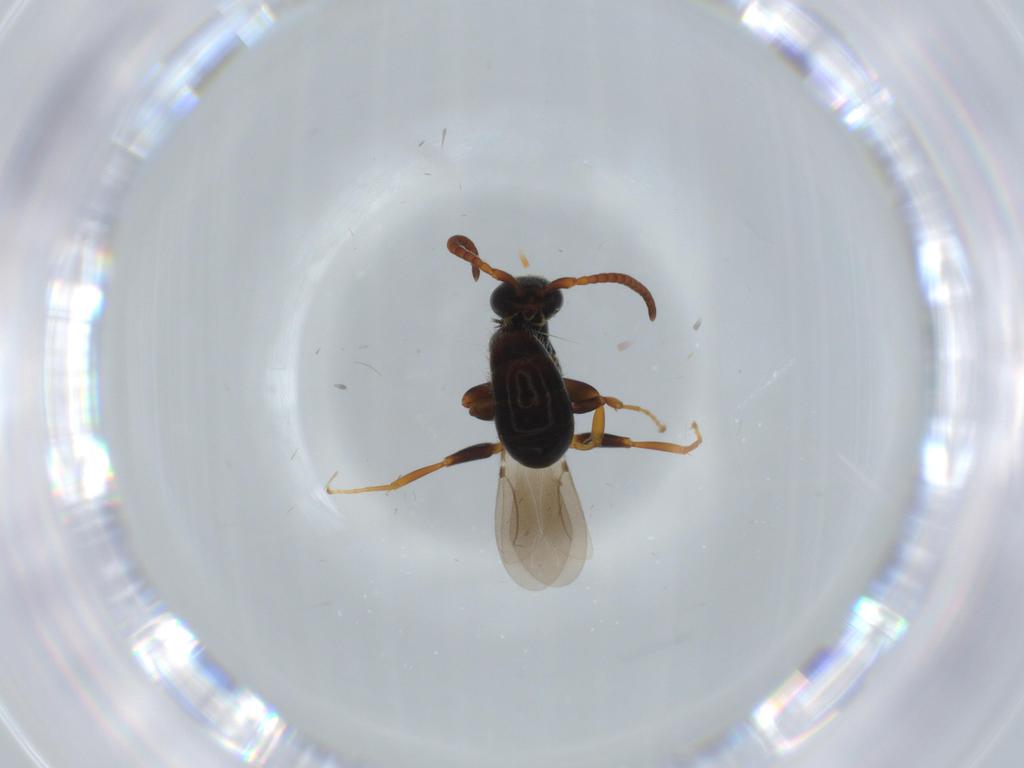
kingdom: Animalia
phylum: Arthropoda
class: Insecta
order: Hymenoptera
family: Bethylidae
